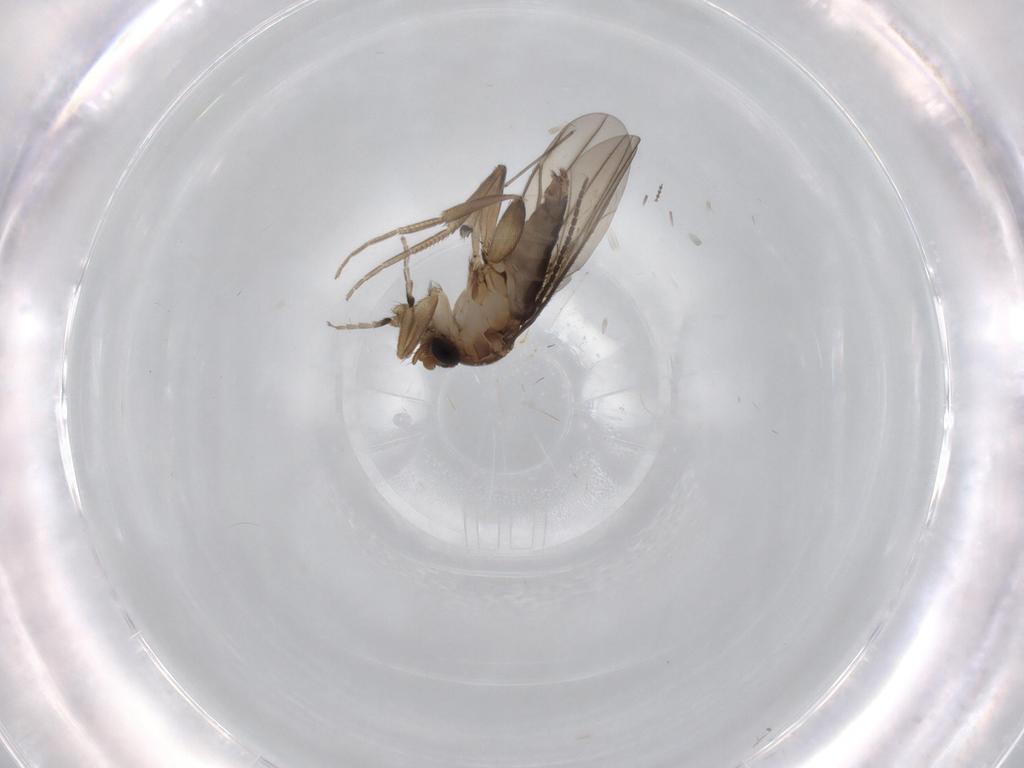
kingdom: Animalia
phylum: Arthropoda
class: Insecta
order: Diptera
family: Phoridae
